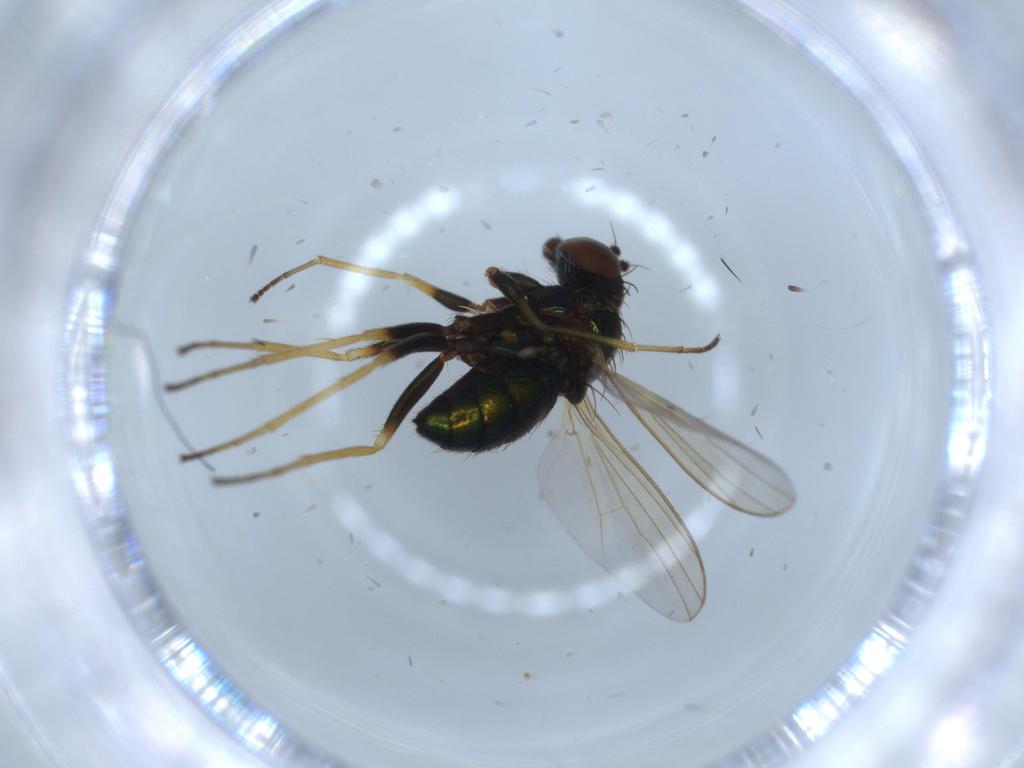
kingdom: Animalia
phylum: Arthropoda
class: Insecta
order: Diptera
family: Dolichopodidae
